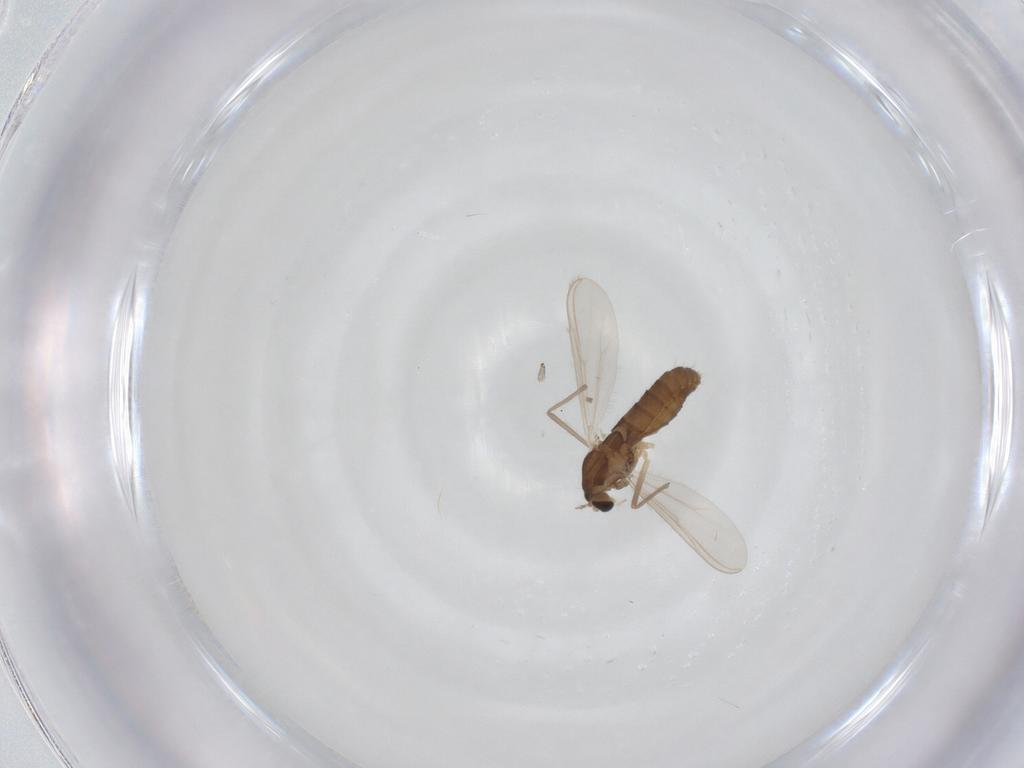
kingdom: Animalia
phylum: Arthropoda
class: Insecta
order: Diptera
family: Chironomidae
